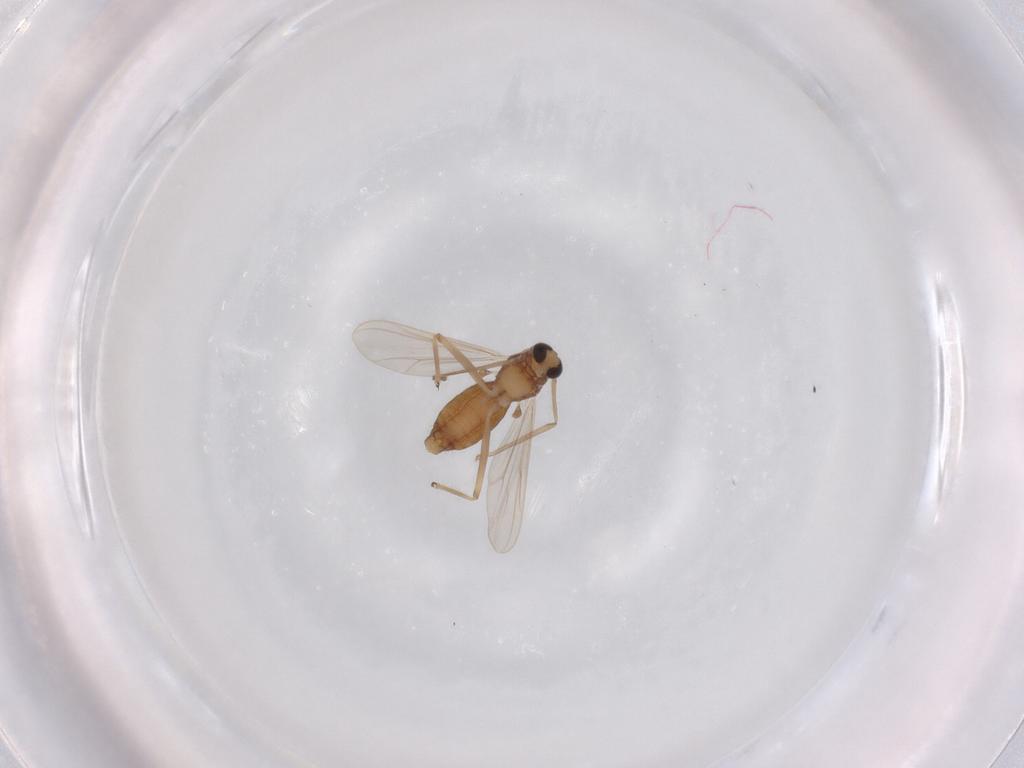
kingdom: Animalia
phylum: Arthropoda
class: Insecta
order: Diptera
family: Chironomidae
